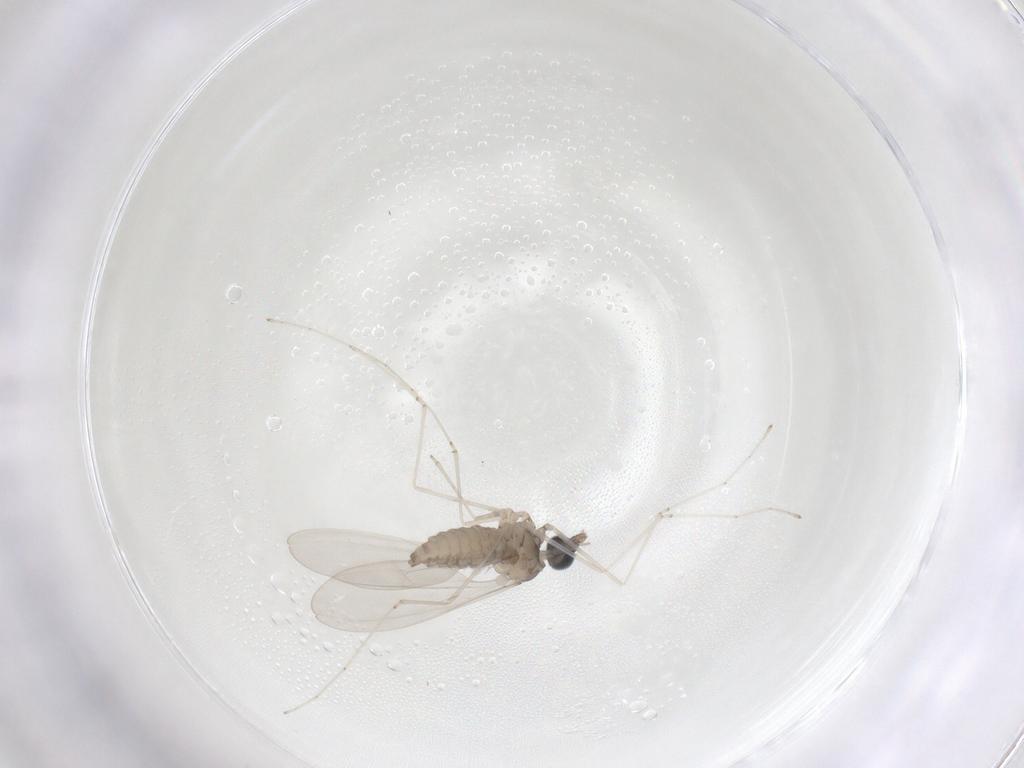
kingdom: Animalia
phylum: Arthropoda
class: Insecta
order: Diptera
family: Cecidomyiidae
